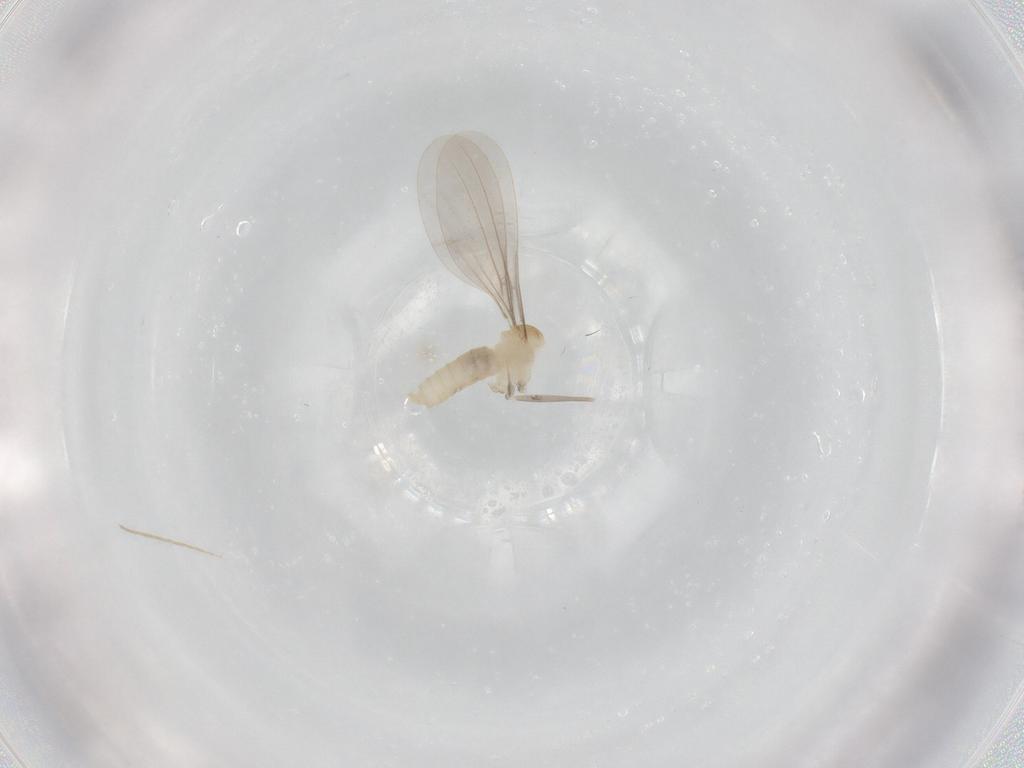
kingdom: Animalia
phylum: Arthropoda
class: Insecta
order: Diptera
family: Cecidomyiidae
